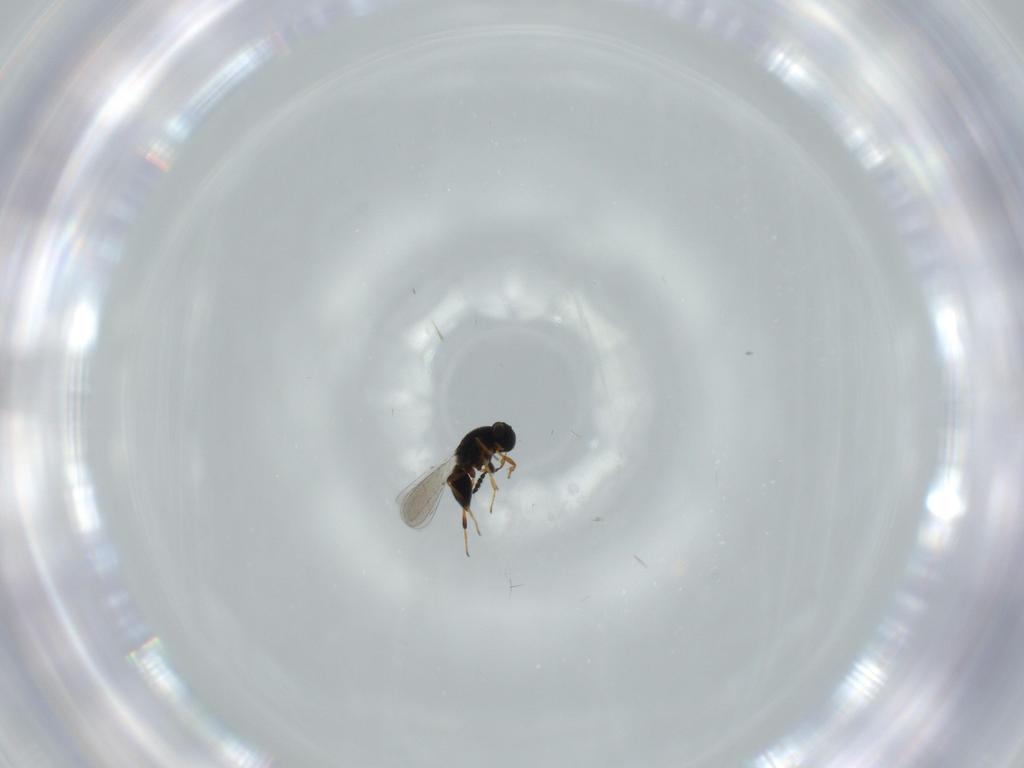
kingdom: Animalia
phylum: Arthropoda
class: Insecta
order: Hymenoptera
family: Platygastridae
